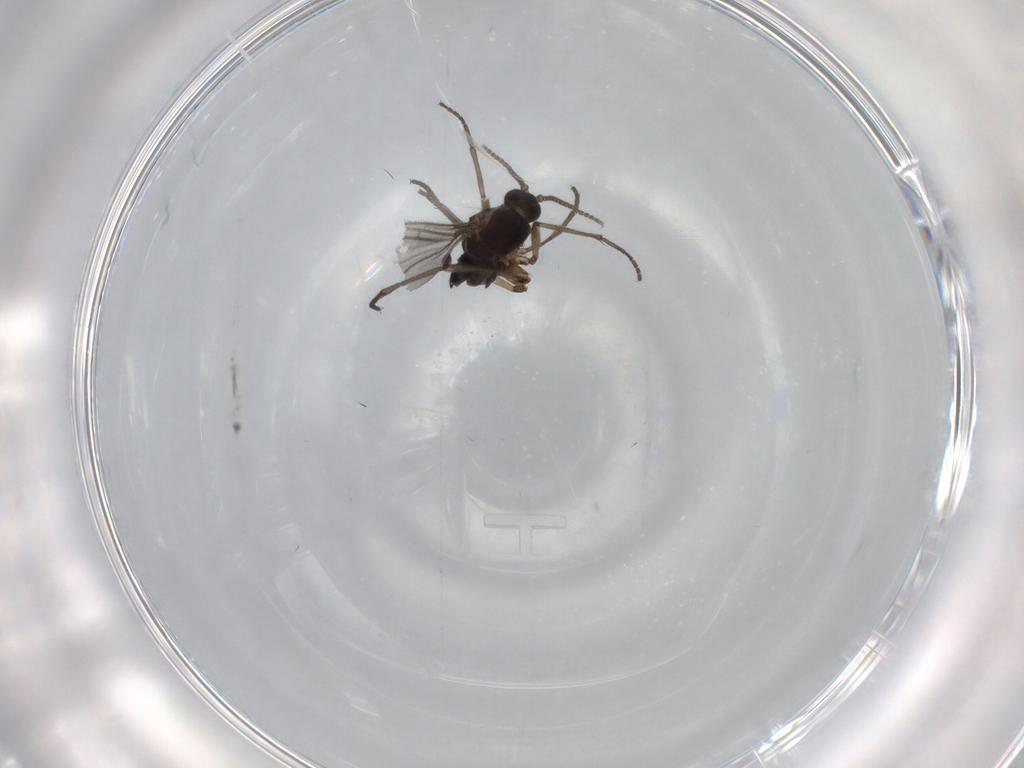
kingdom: Animalia
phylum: Arthropoda
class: Insecta
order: Diptera
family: Sciaridae
